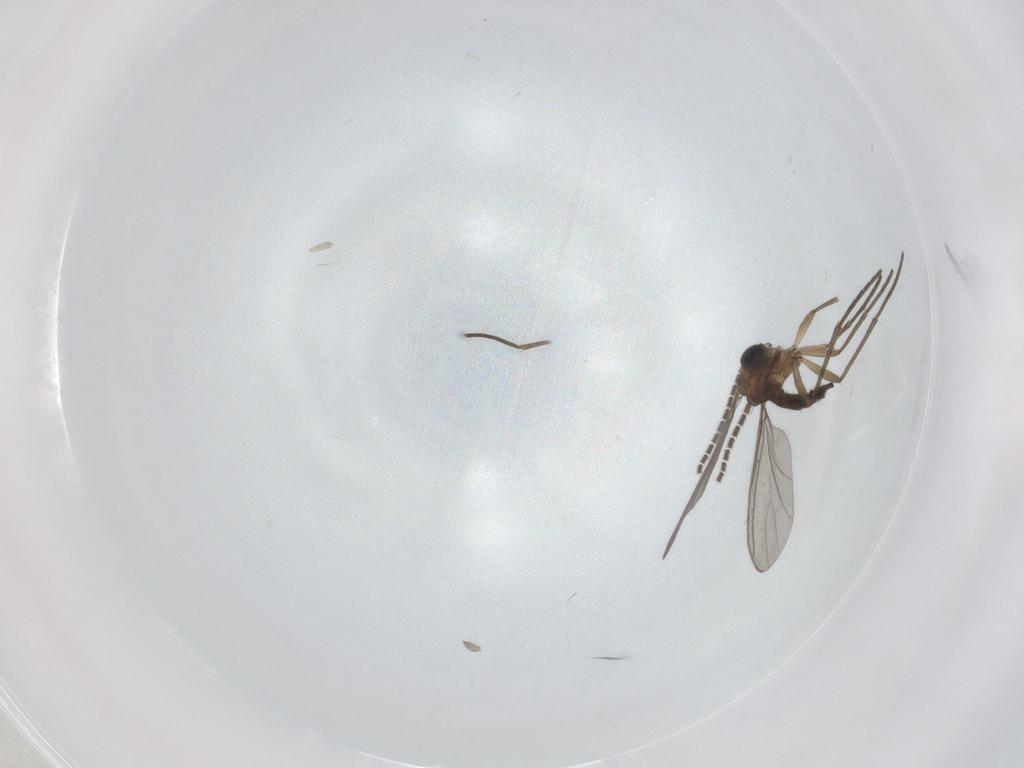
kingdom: Animalia
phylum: Arthropoda
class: Insecta
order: Diptera
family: Sciaridae
